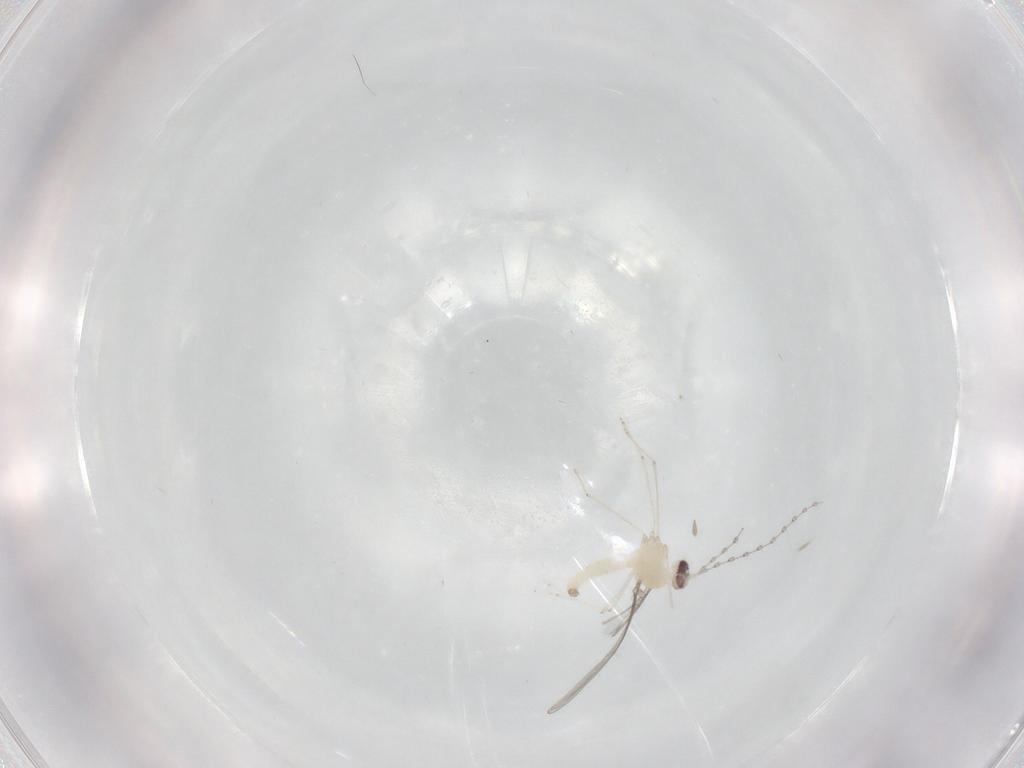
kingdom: Animalia
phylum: Arthropoda
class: Insecta
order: Diptera
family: Cecidomyiidae
